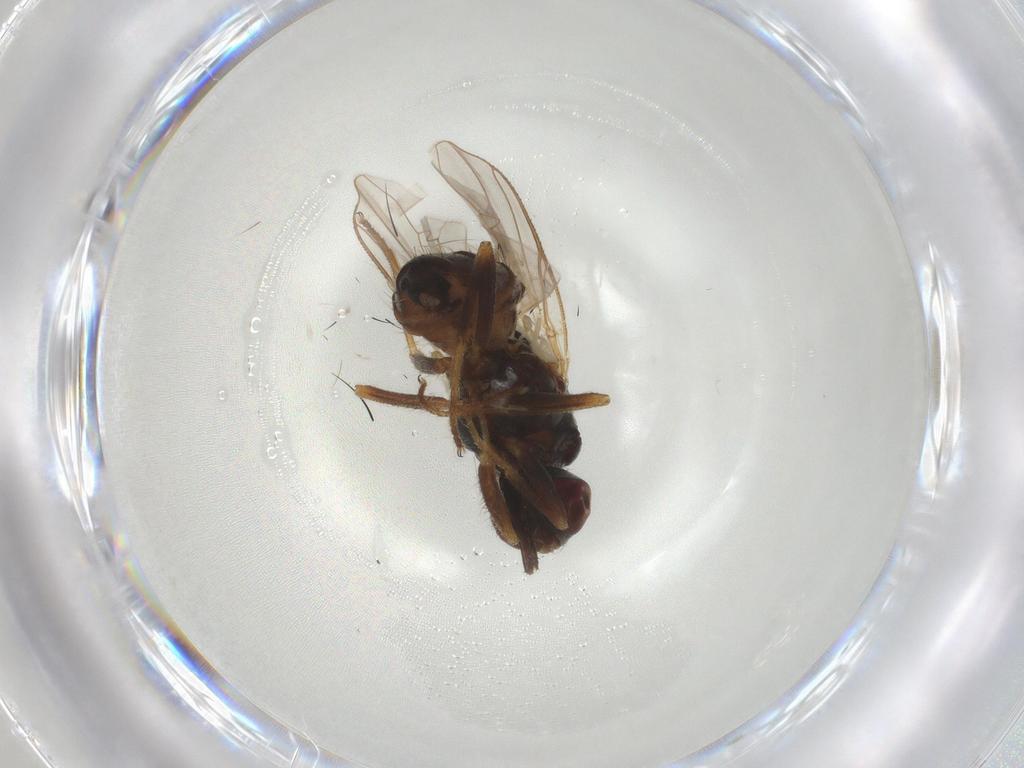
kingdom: Animalia
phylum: Arthropoda
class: Insecta
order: Diptera
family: Muscidae
